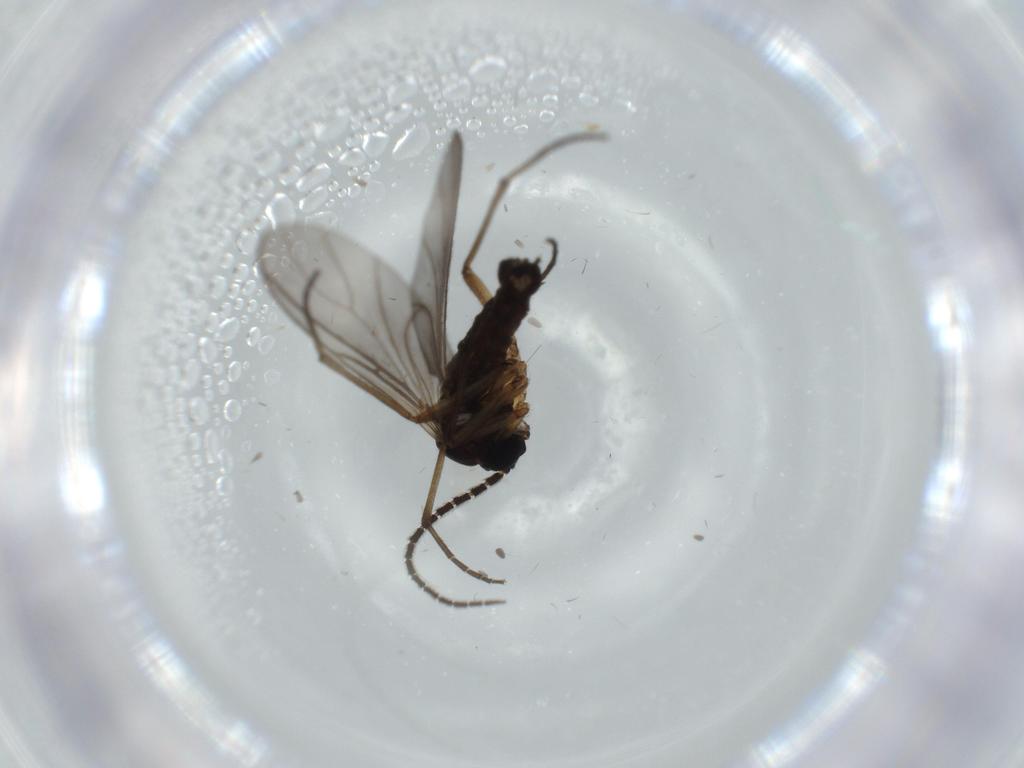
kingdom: Animalia
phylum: Arthropoda
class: Insecta
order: Diptera
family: Sciaridae
